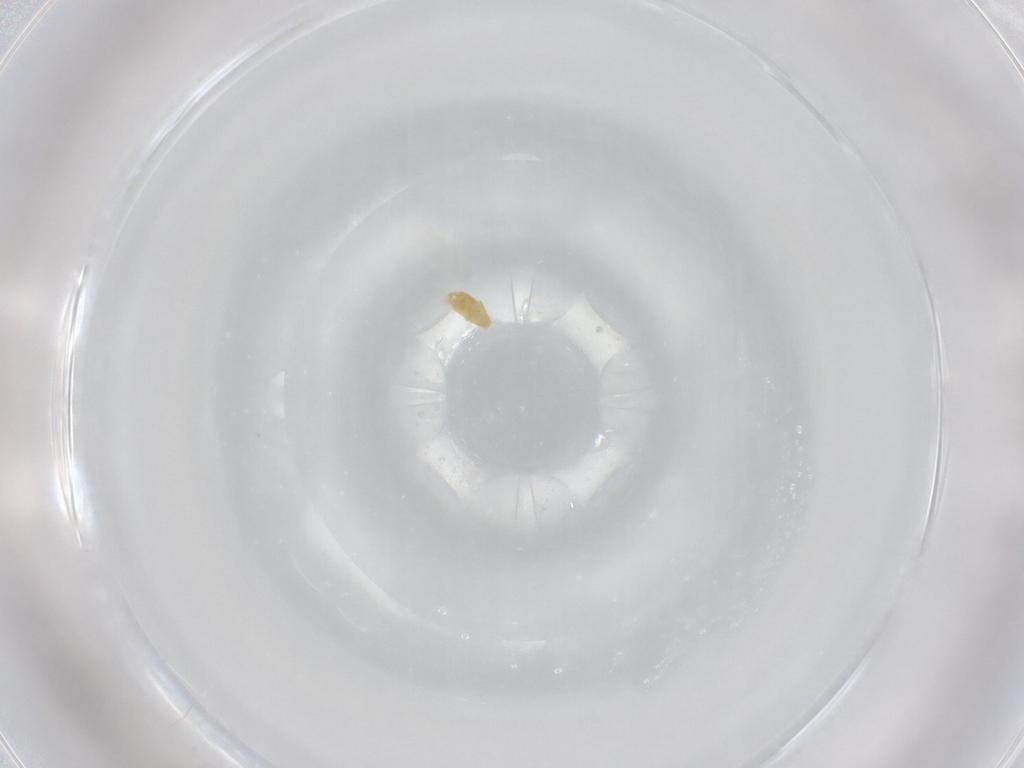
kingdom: Animalia
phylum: Arthropoda
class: Arachnida
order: Trombidiformes
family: Eupodidae
